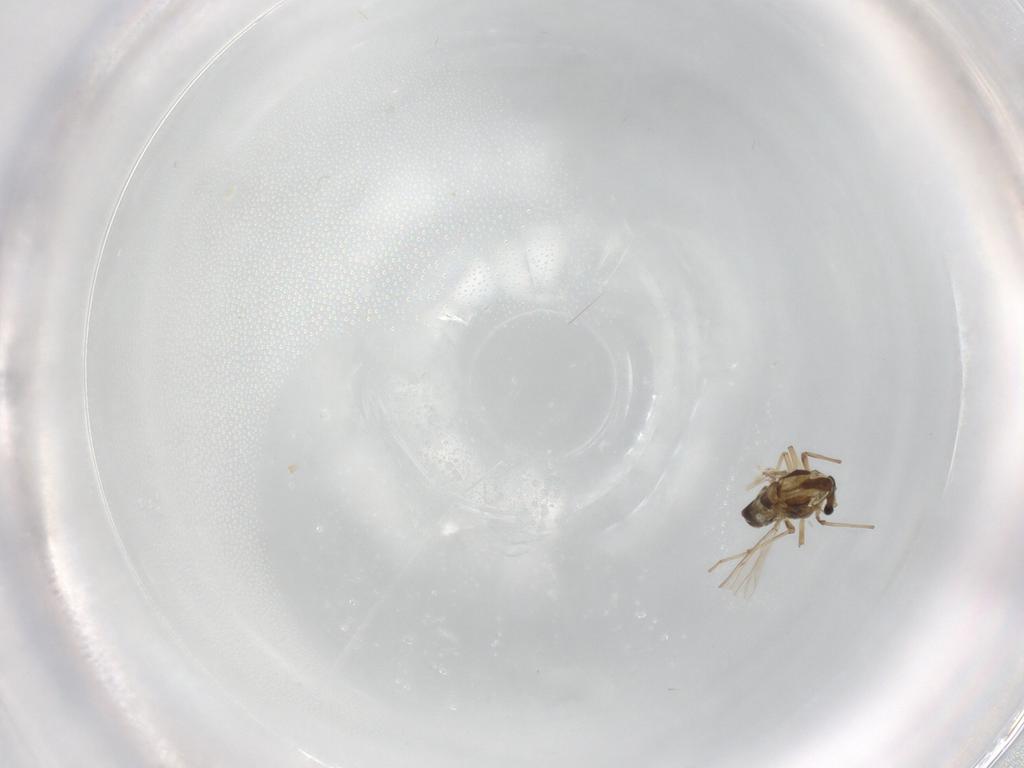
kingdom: Animalia
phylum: Arthropoda
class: Insecta
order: Diptera
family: Chironomidae
